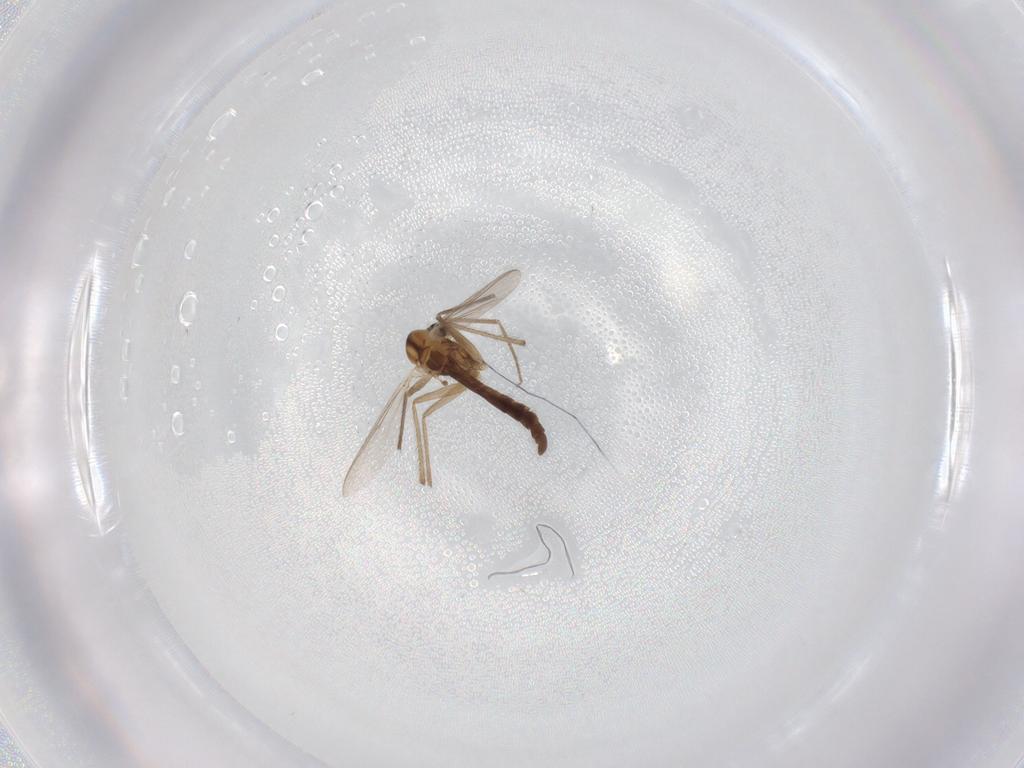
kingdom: Animalia
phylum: Arthropoda
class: Insecta
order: Diptera
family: Chironomidae
